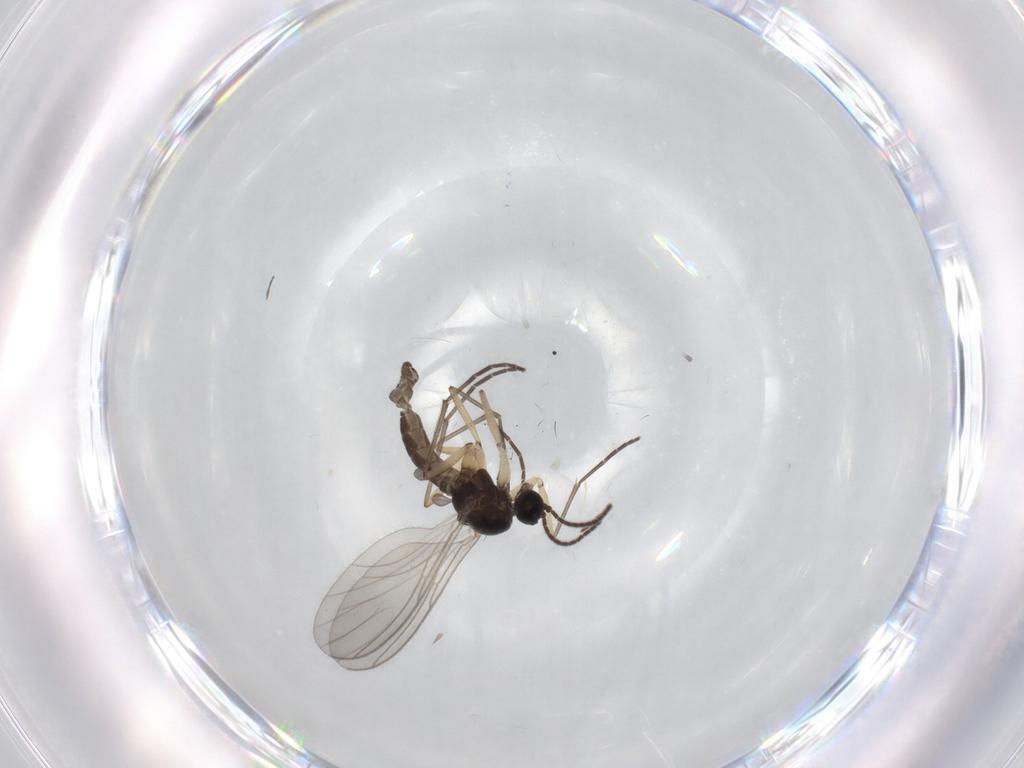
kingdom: Animalia
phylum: Arthropoda
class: Insecta
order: Diptera
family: Sciaridae
